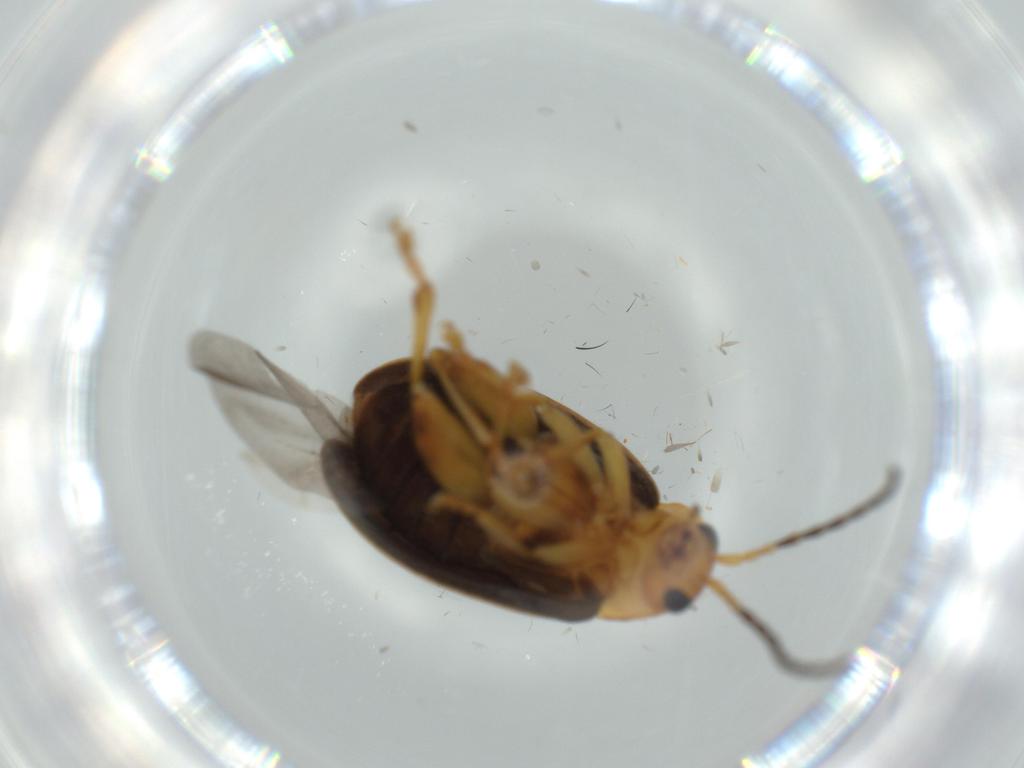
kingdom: Animalia
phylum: Arthropoda
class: Insecta
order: Coleoptera
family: Chrysomelidae
